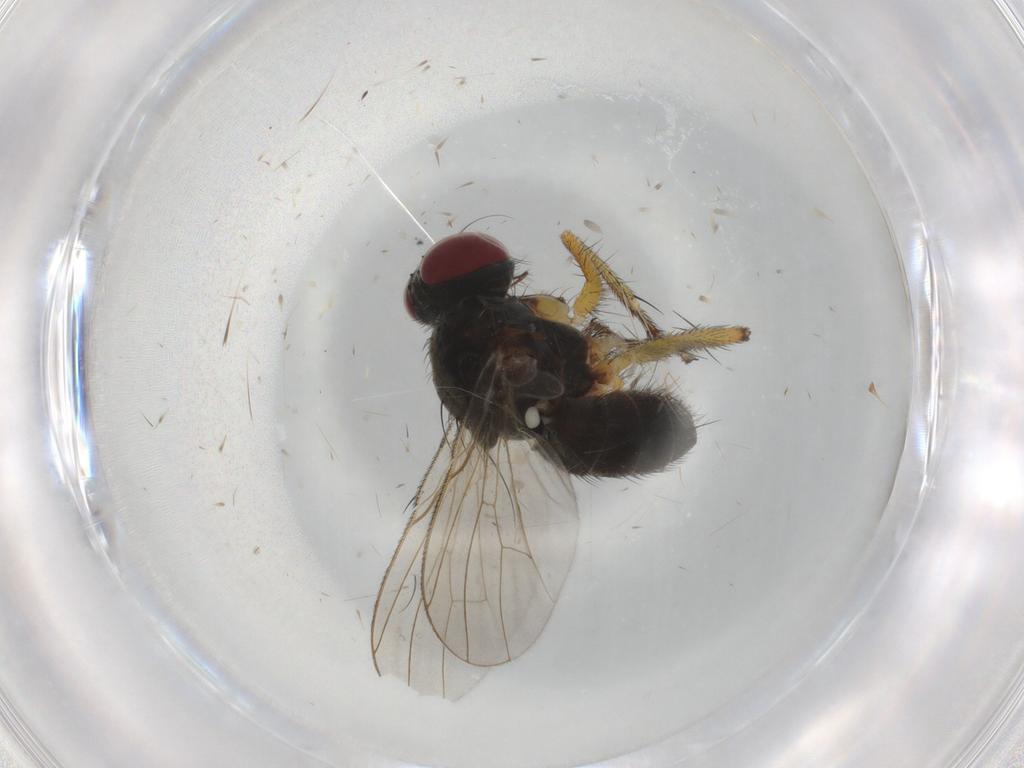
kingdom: Animalia
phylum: Arthropoda
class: Insecta
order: Diptera
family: Muscidae
